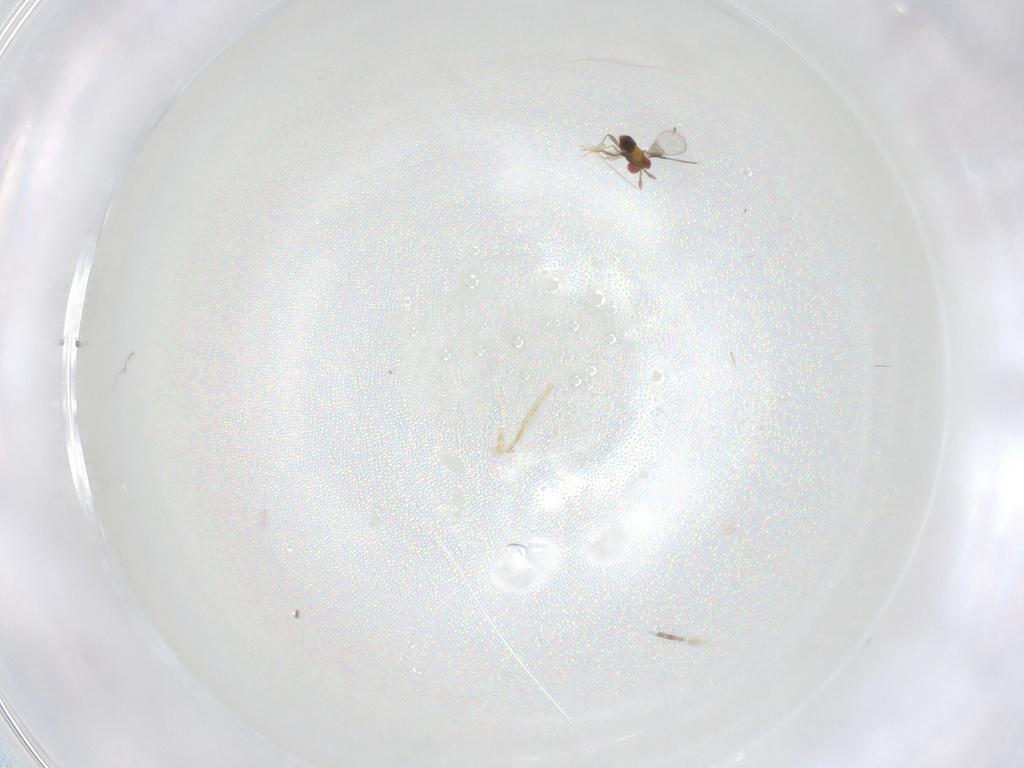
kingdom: Animalia
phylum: Arthropoda
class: Insecta
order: Hymenoptera
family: Trichogrammatidae
